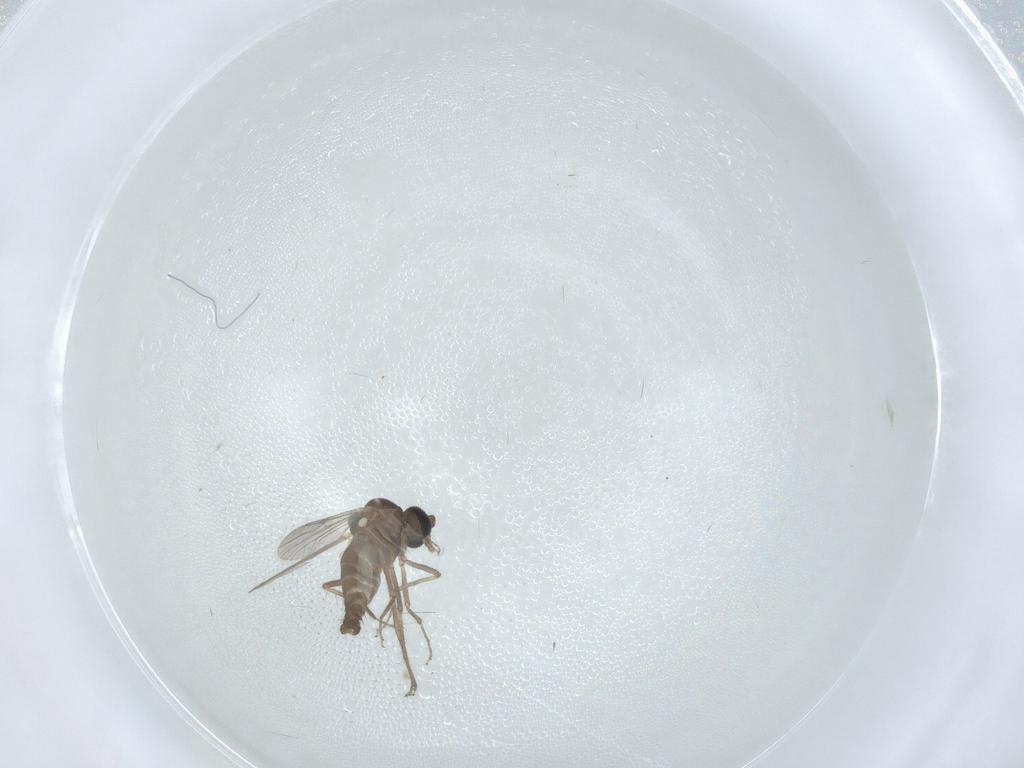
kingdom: Animalia
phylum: Arthropoda
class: Insecta
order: Diptera
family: Ceratopogonidae
